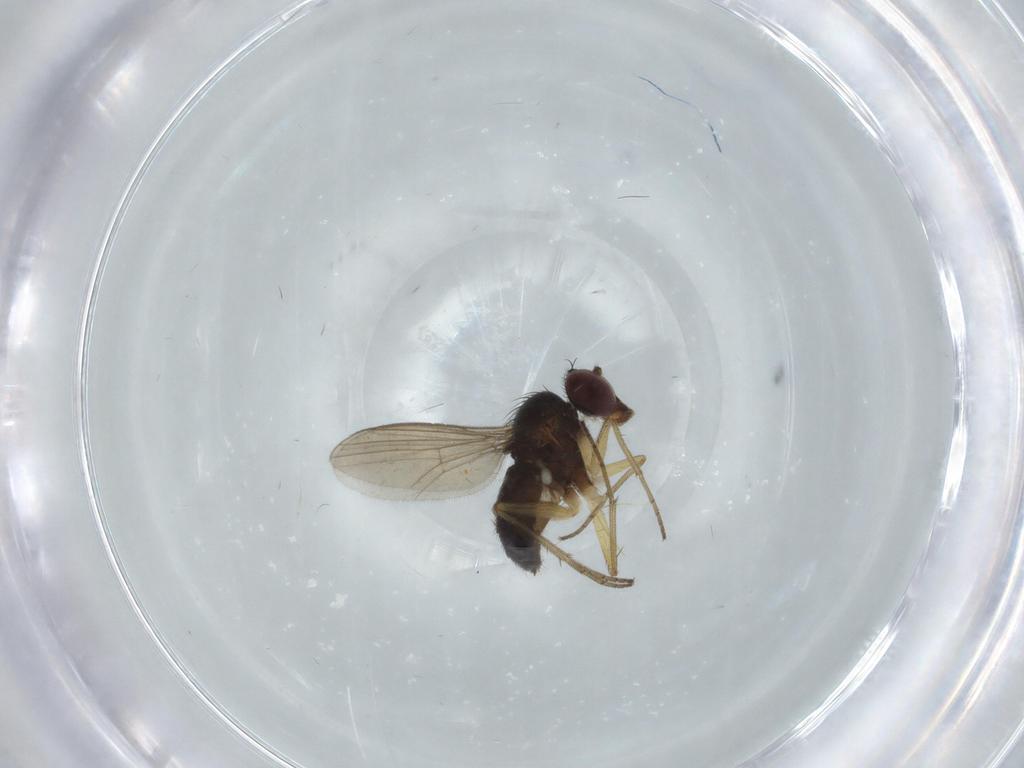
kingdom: Animalia
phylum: Arthropoda
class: Insecta
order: Diptera
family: Dolichopodidae
